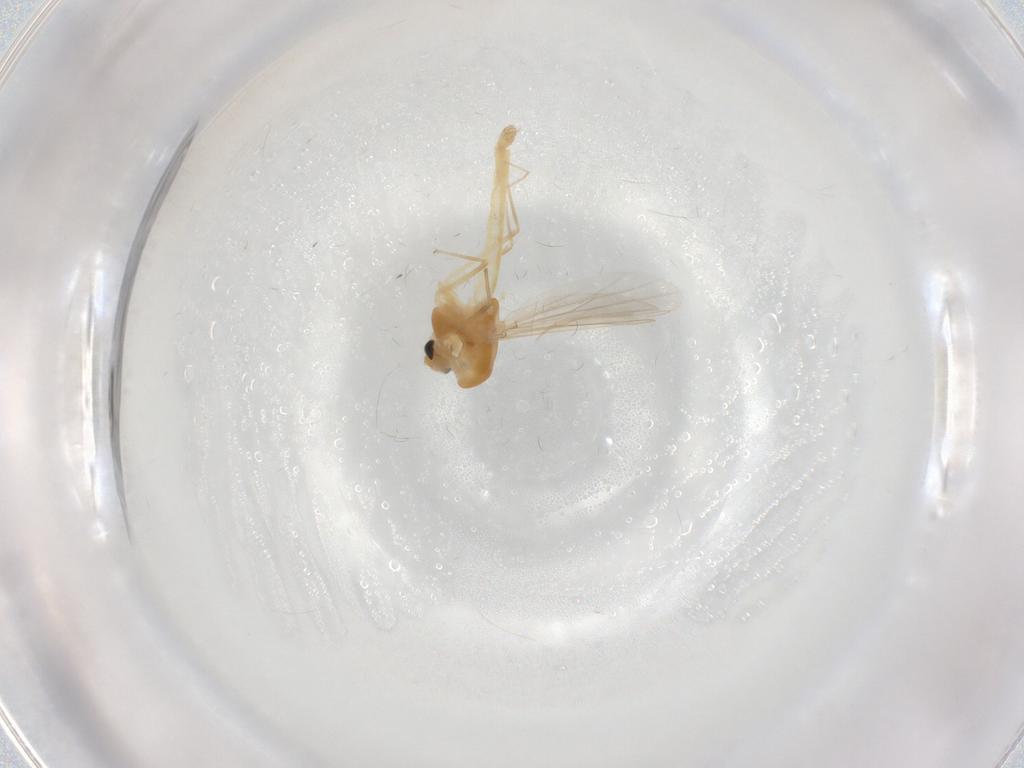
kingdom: Animalia
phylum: Arthropoda
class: Insecta
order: Diptera
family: Chironomidae
